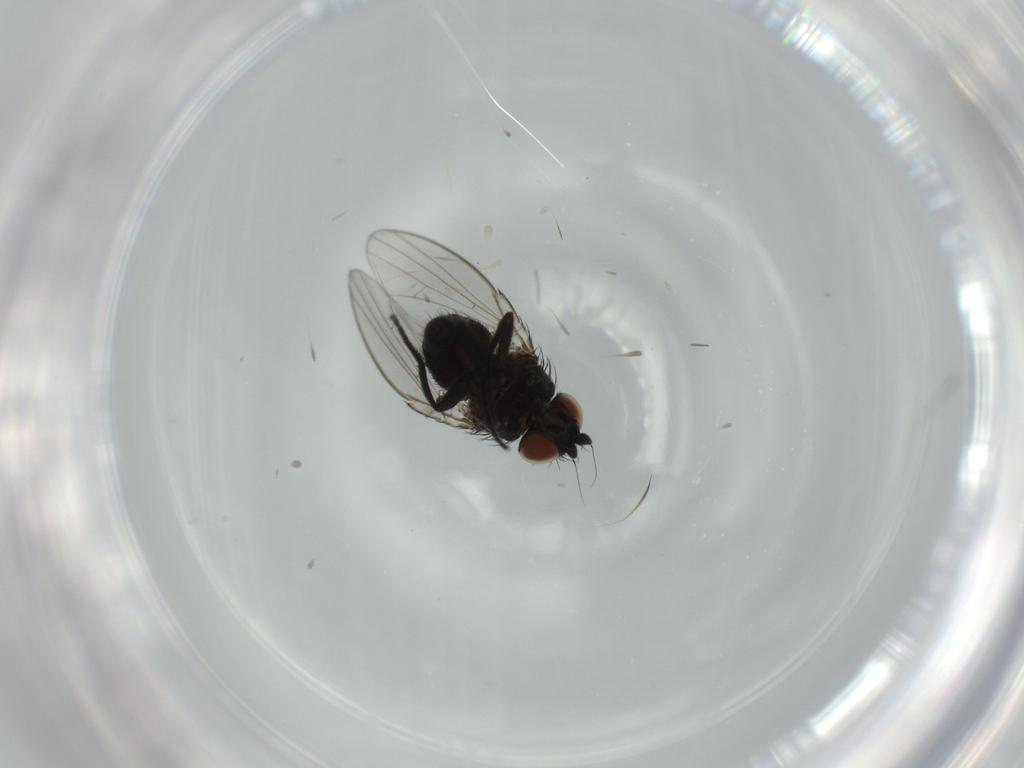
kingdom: Animalia
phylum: Arthropoda
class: Insecta
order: Diptera
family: Milichiidae
